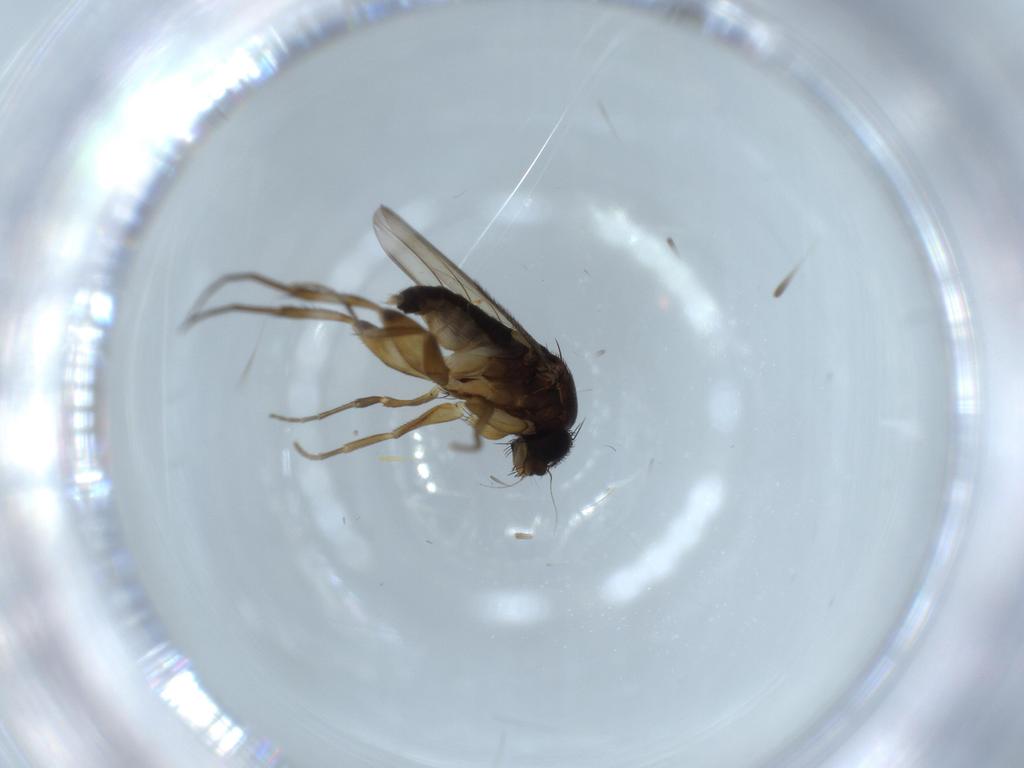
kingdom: Animalia
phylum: Arthropoda
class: Insecta
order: Diptera
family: Phoridae
